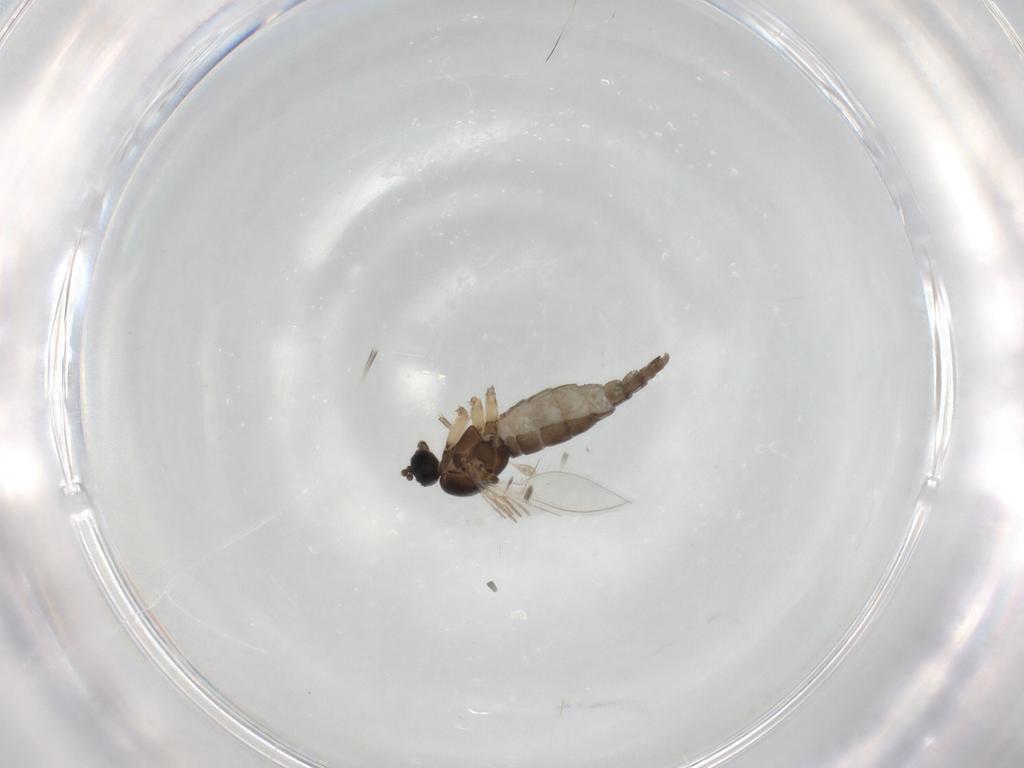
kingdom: Animalia
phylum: Arthropoda
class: Insecta
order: Diptera
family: Sciaridae
